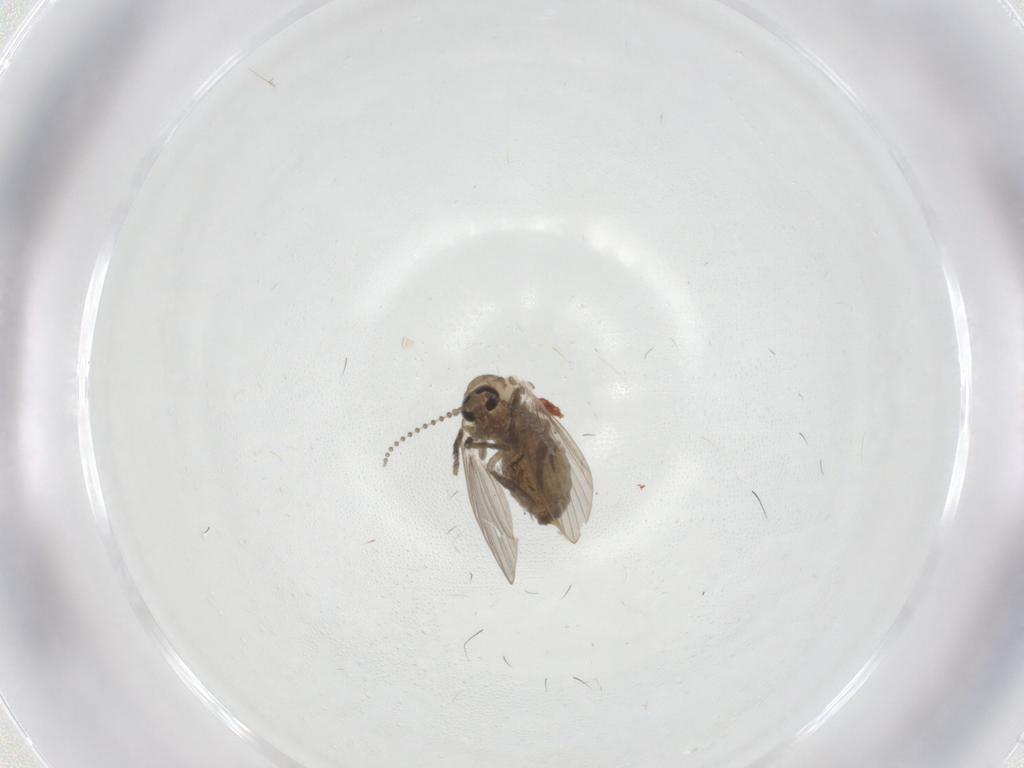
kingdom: Animalia
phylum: Arthropoda
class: Insecta
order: Diptera
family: Psychodidae
